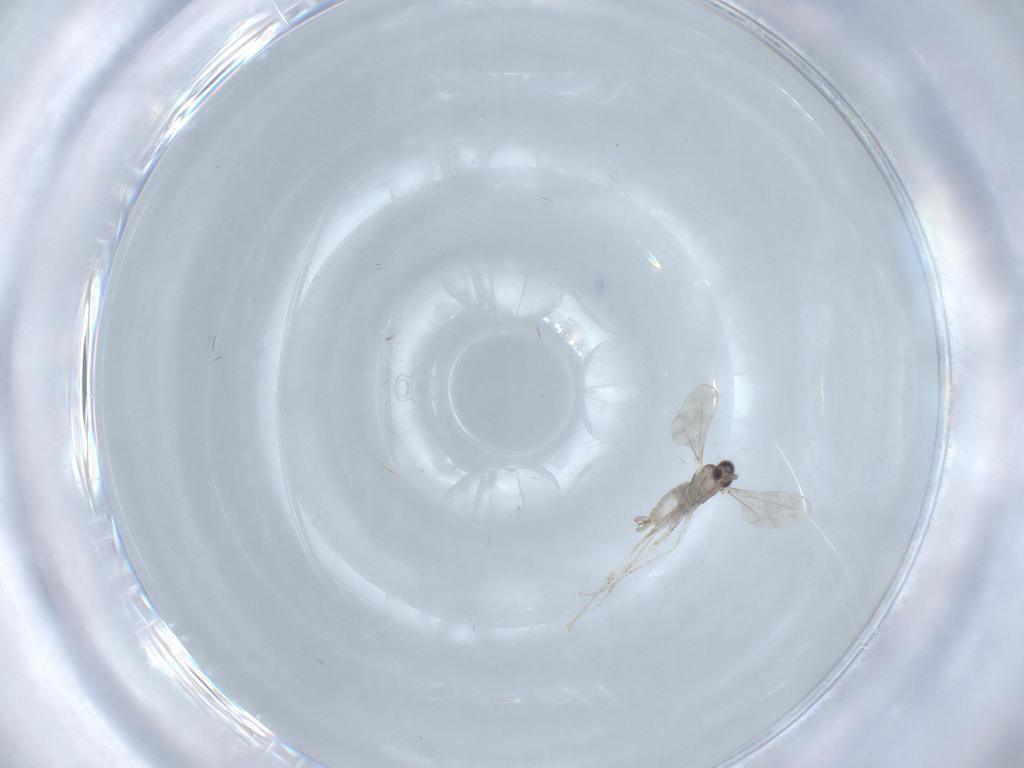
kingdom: Animalia
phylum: Arthropoda
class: Insecta
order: Diptera
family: Cecidomyiidae
